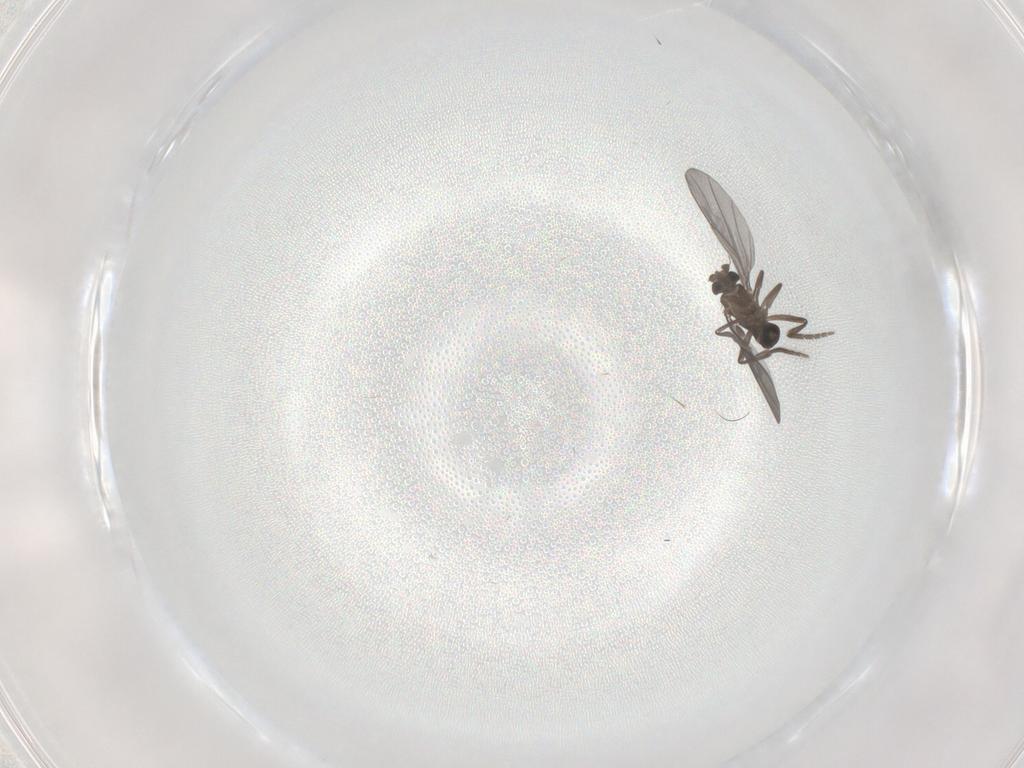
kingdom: Animalia
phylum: Arthropoda
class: Insecta
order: Diptera
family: Phoridae
